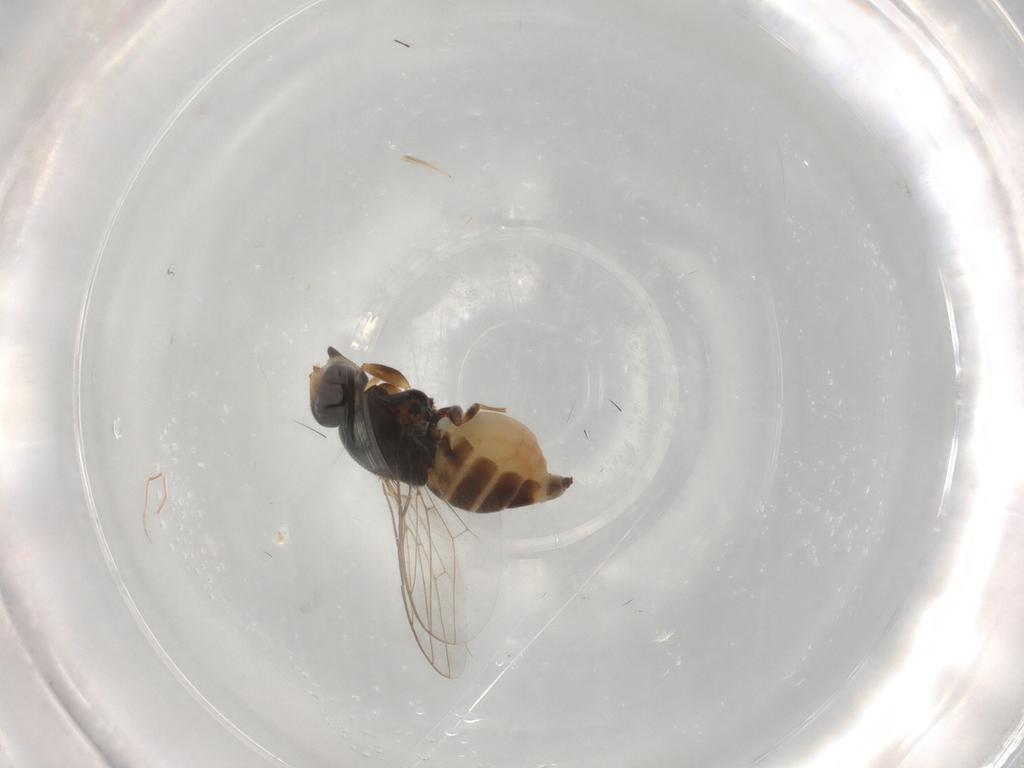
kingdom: Animalia
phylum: Arthropoda
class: Insecta
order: Diptera
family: Chloropidae
